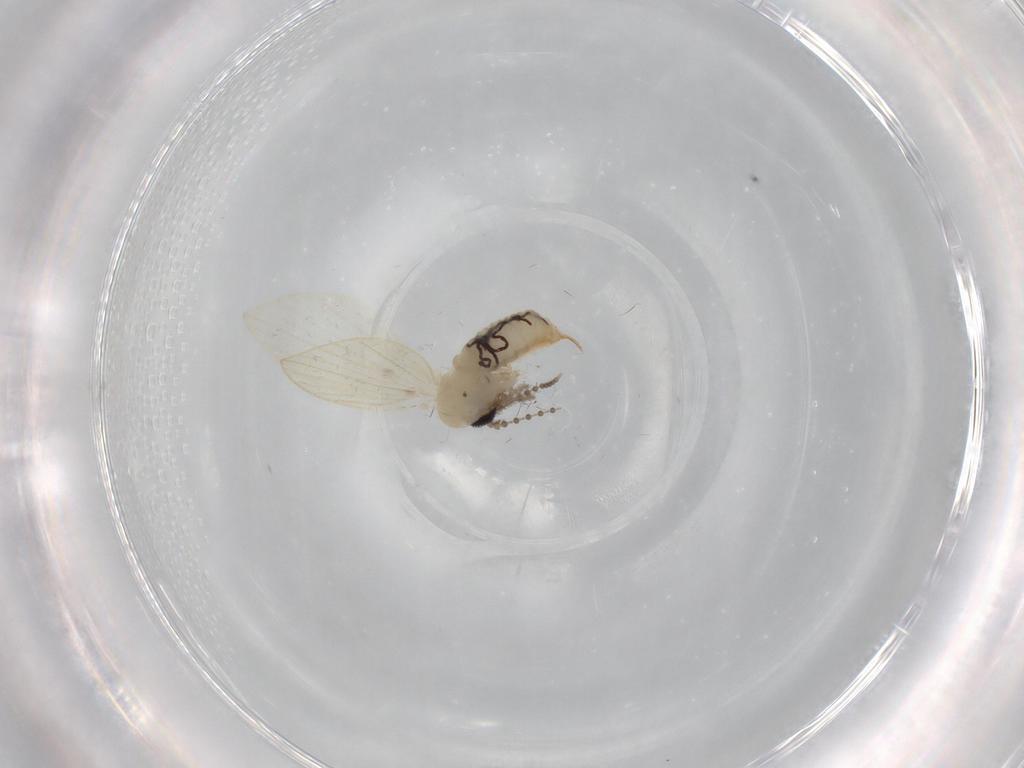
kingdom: Animalia
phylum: Arthropoda
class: Insecta
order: Diptera
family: Psychodidae
